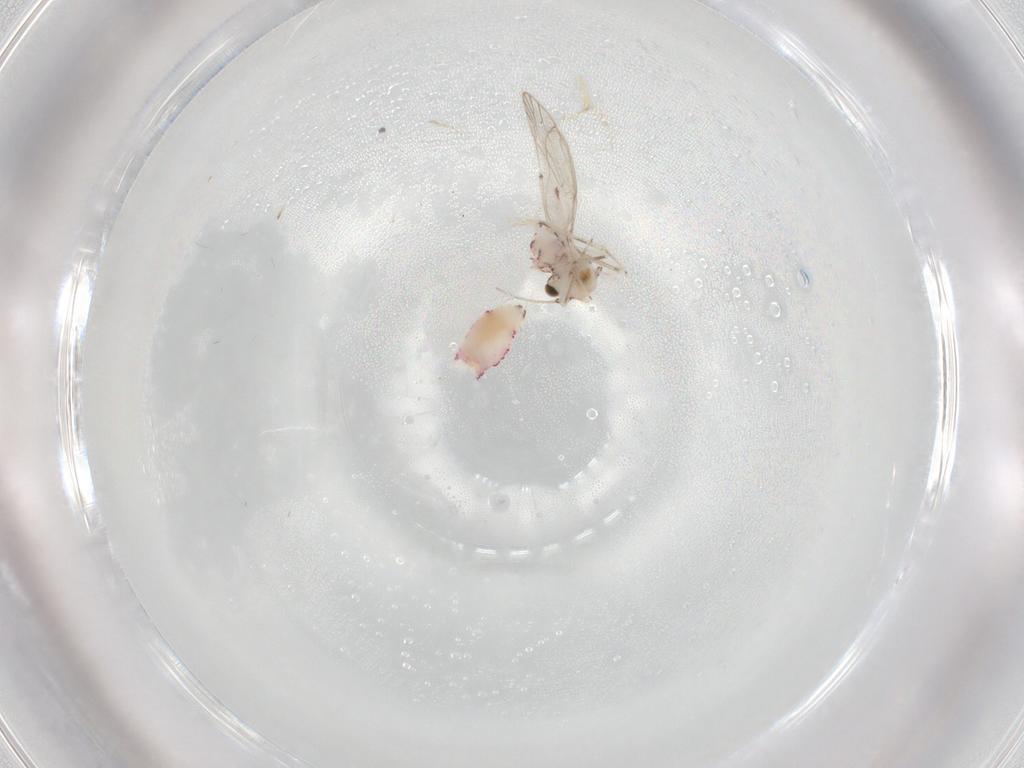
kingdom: Animalia
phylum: Arthropoda
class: Insecta
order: Psocodea
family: Caeciliusidae
